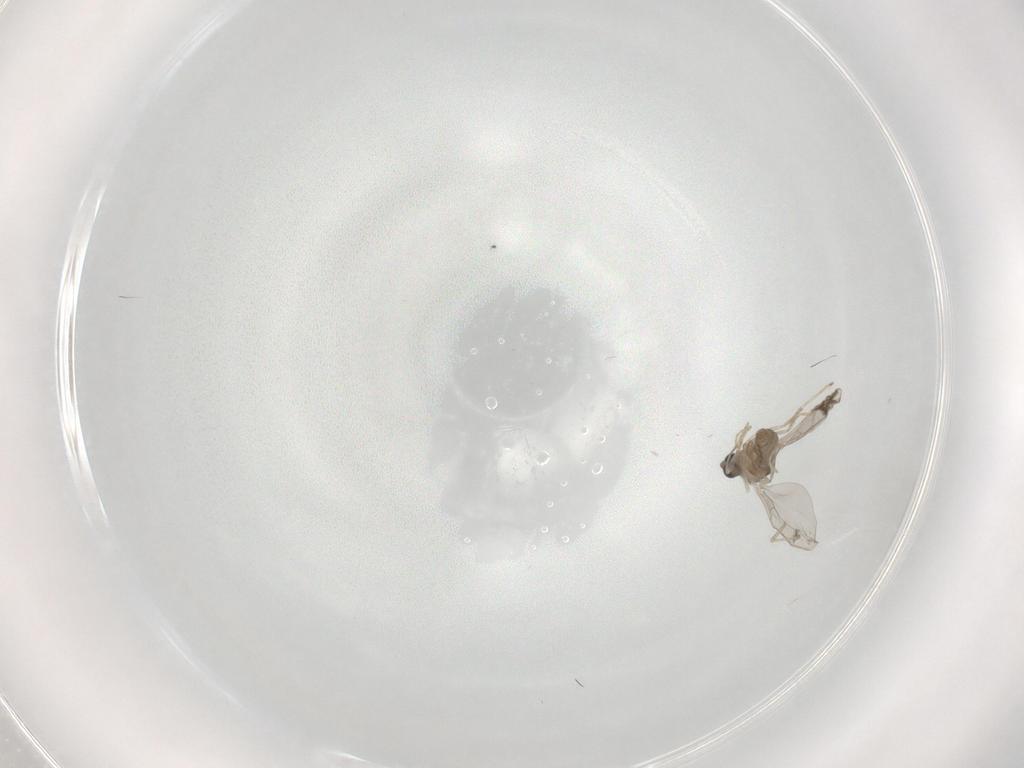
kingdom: Animalia
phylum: Arthropoda
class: Insecta
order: Diptera
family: Cecidomyiidae
